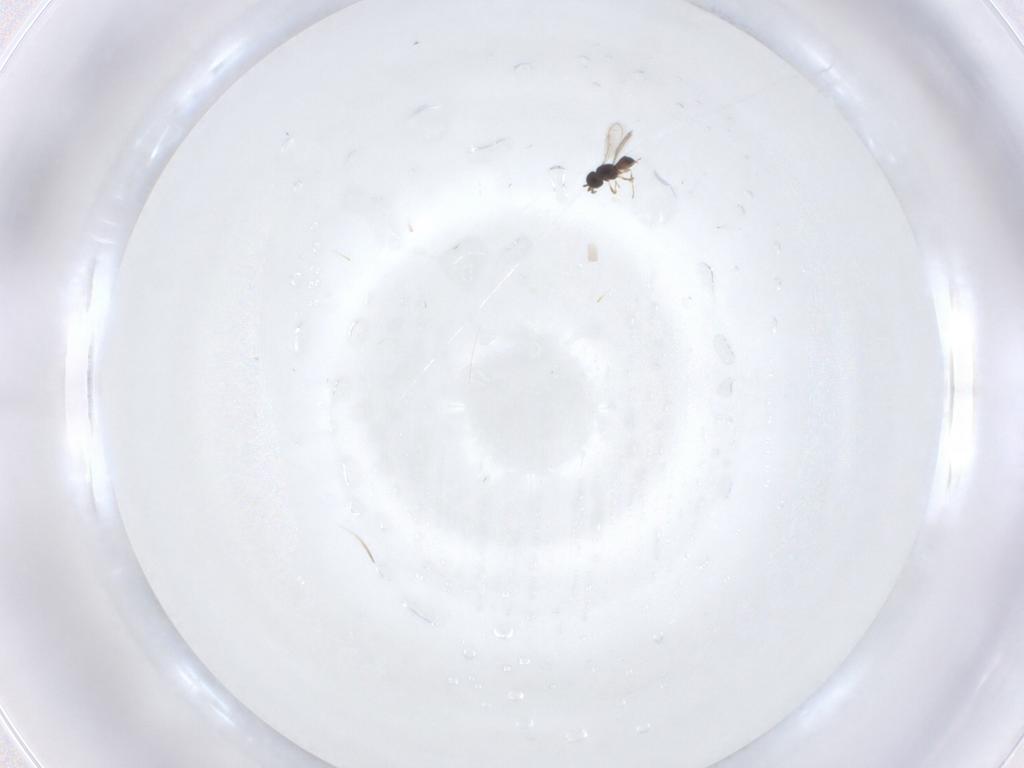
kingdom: Animalia
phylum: Arthropoda
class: Insecta
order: Hymenoptera
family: Scelionidae
